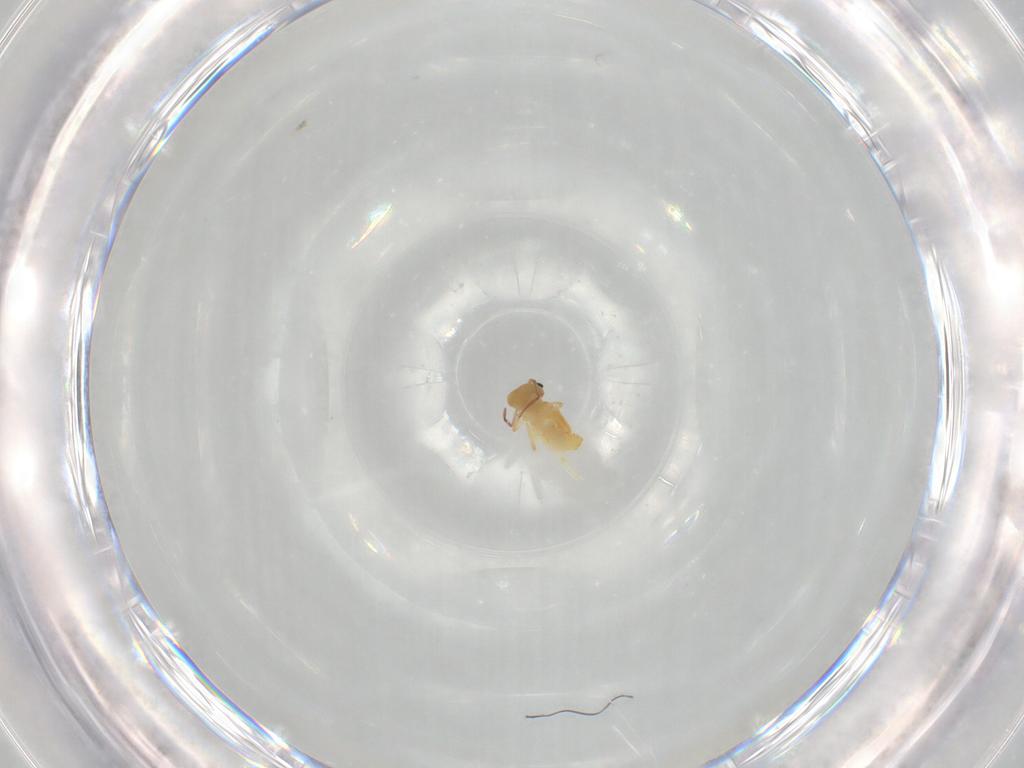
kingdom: Animalia
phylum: Arthropoda
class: Collembola
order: Symphypleona
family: Bourletiellidae
